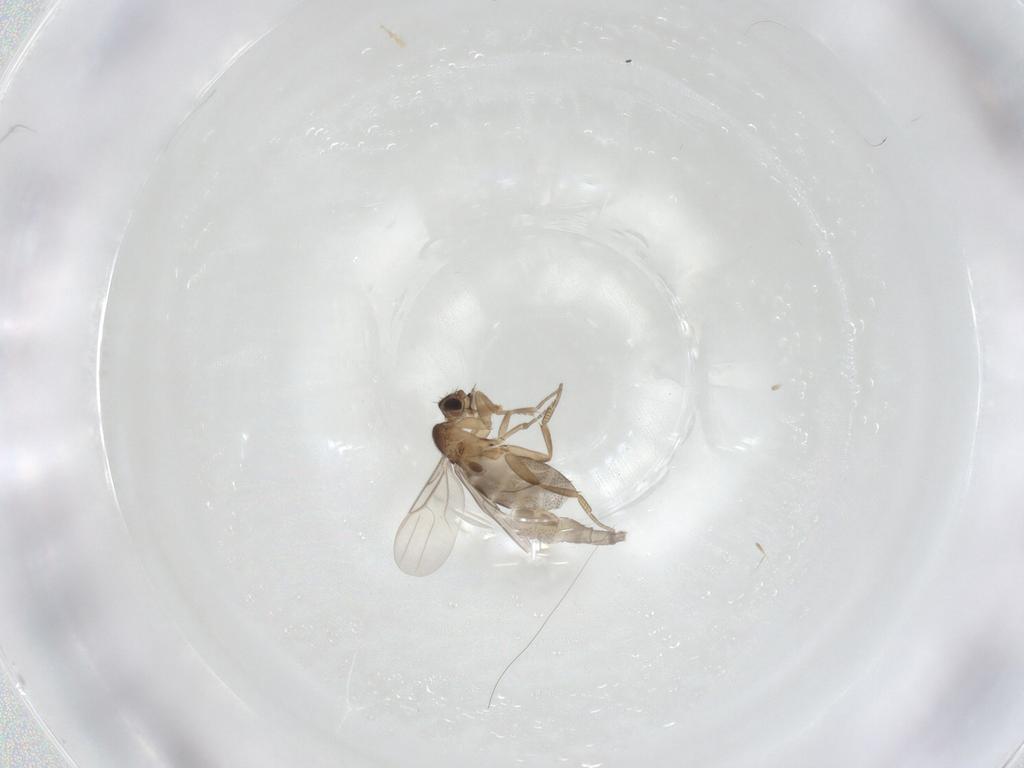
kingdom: Animalia
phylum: Arthropoda
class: Insecta
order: Diptera
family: Phoridae
